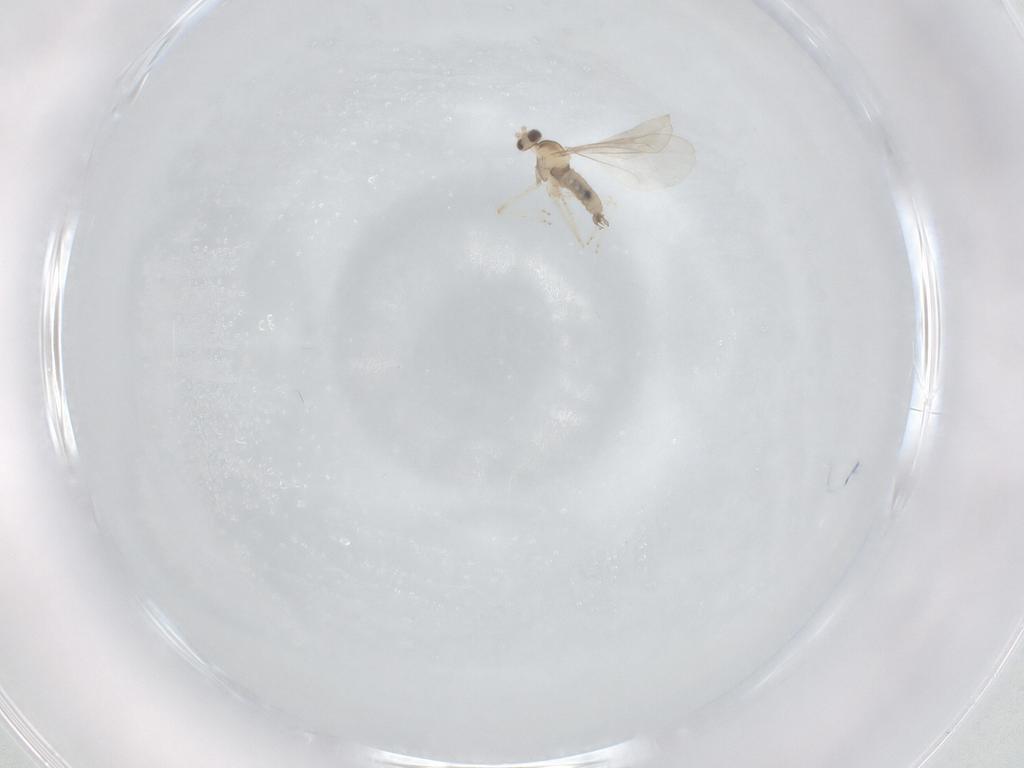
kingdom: Animalia
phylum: Arthropoda
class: Insecta
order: Diptera
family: Cecidomyiidae
